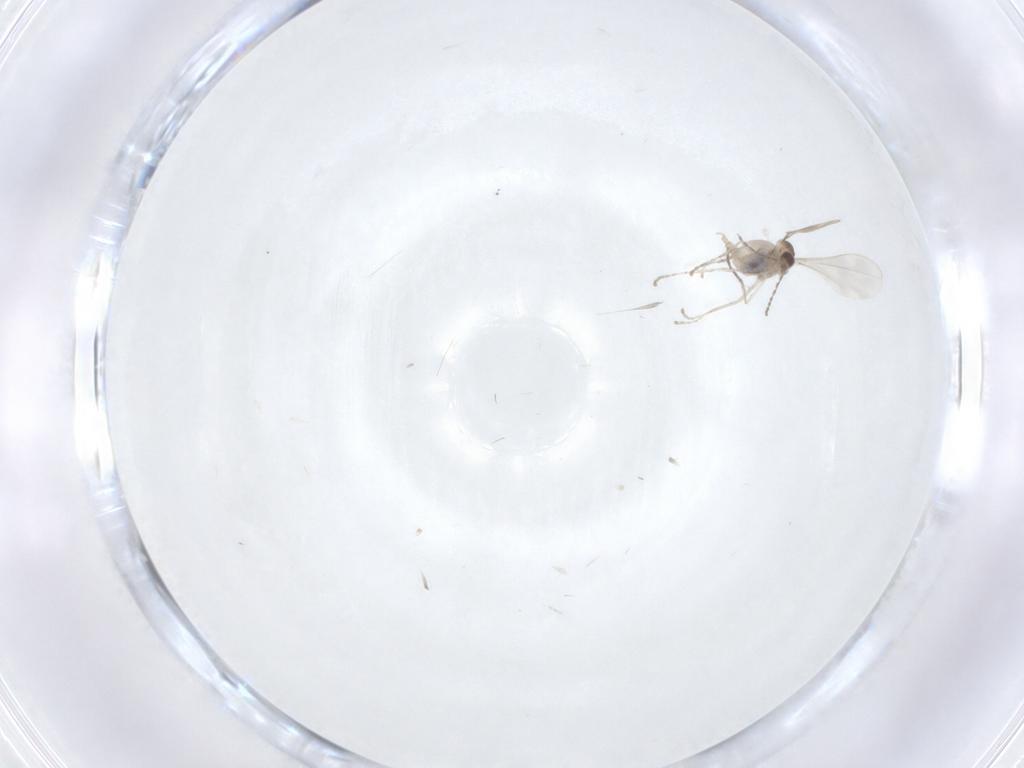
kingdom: Animalia
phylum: Arthropoda
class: Insecta
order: Diptera
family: Cecidomyiidae
